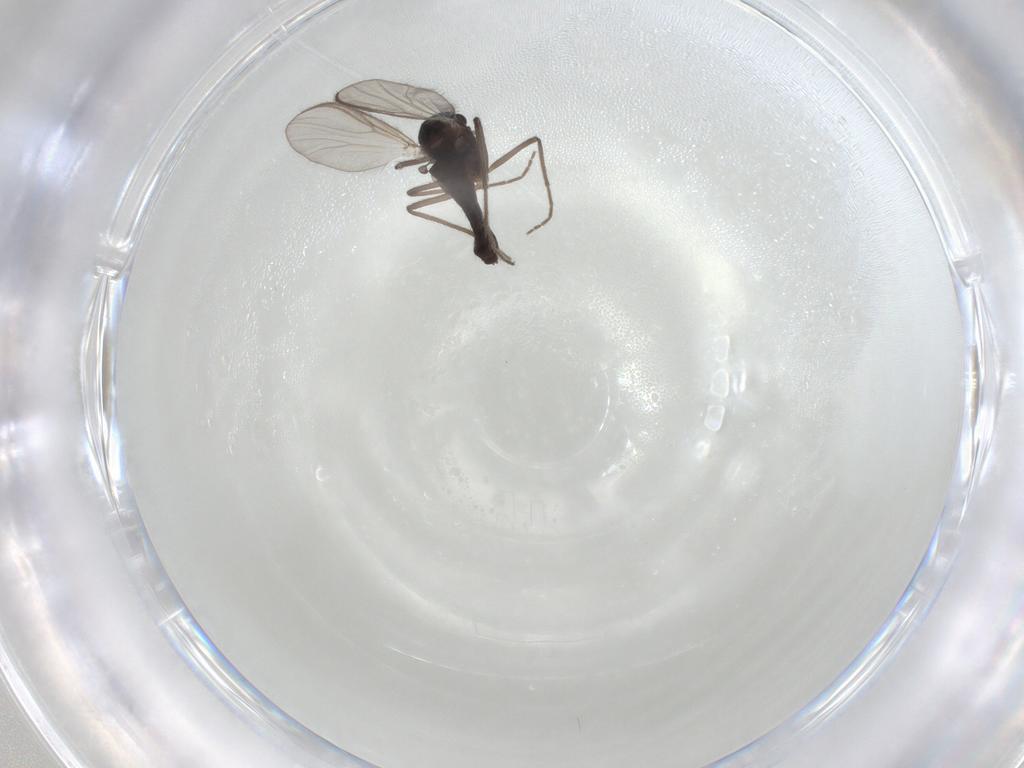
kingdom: Animalia
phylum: Arthropoda
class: Insecta
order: Diptera
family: Chironomidae
